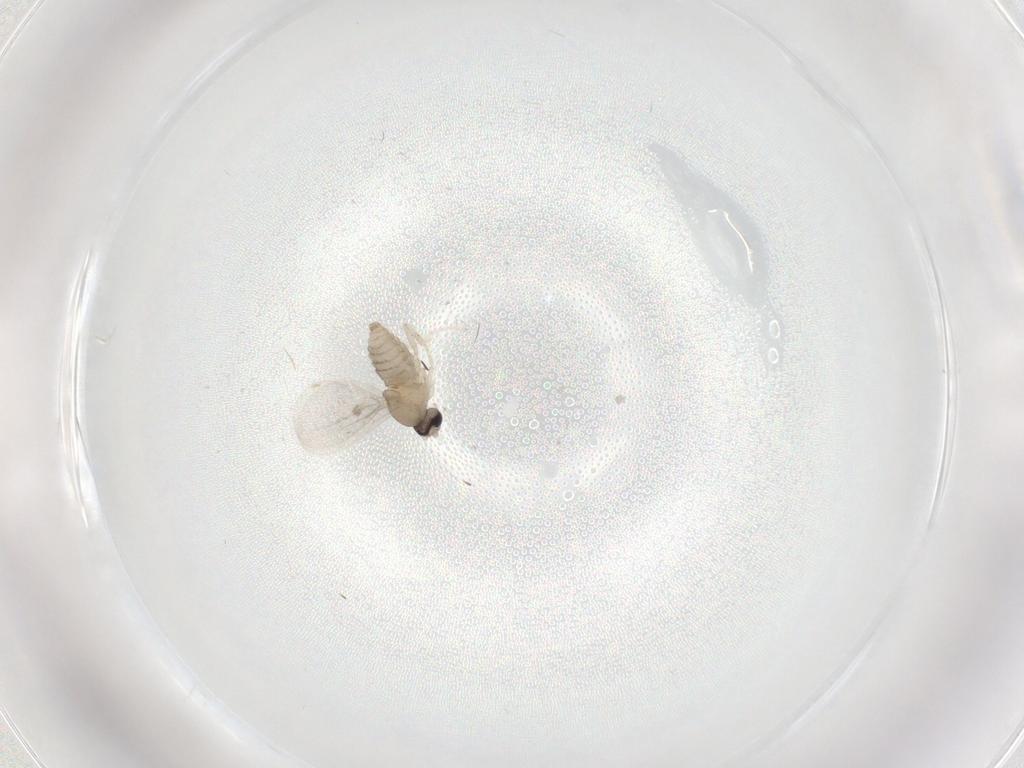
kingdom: Animalia
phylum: Arthropoda
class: Insecta
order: Diptera
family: Cecidomyiidae
